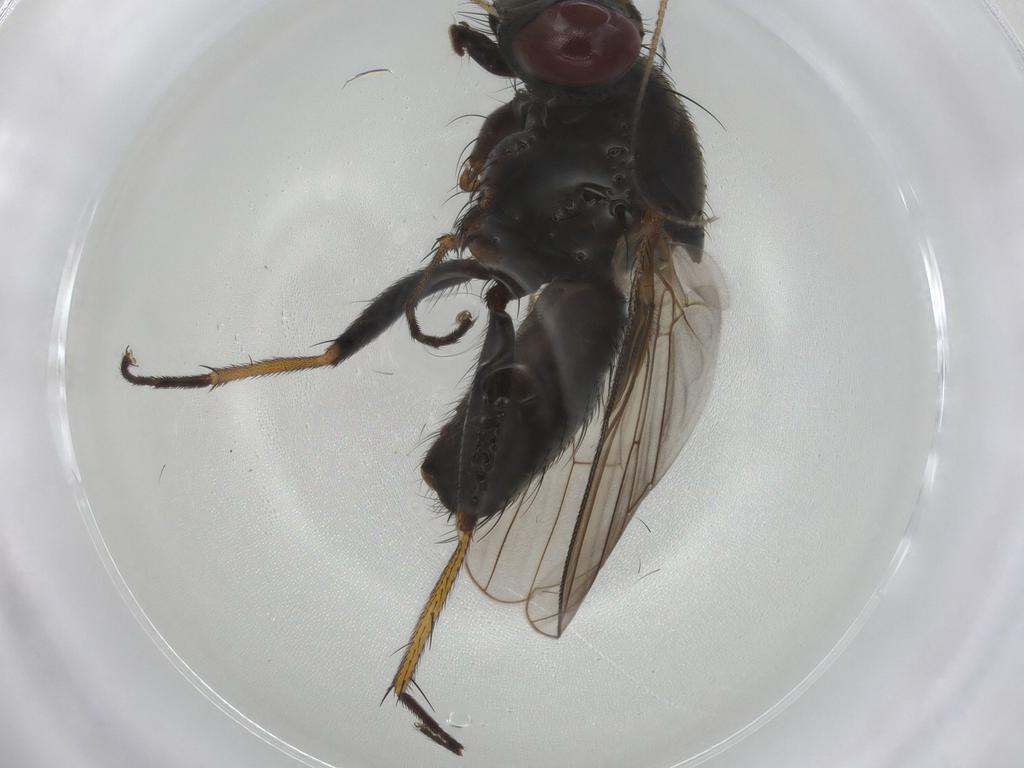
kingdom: Animalia
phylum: Arthropoda
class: Insecta
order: Diptera
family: Muscidae
